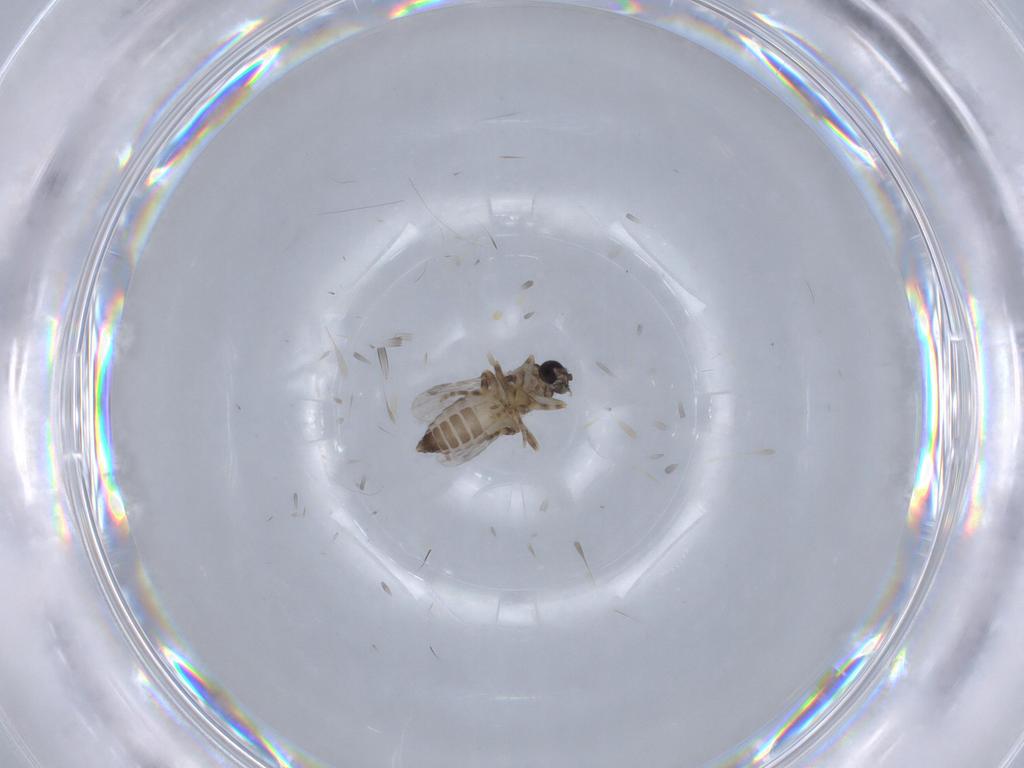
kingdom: Animalia
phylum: Arthropoda
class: Insecta
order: Diptera
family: Ceratopogonidae
